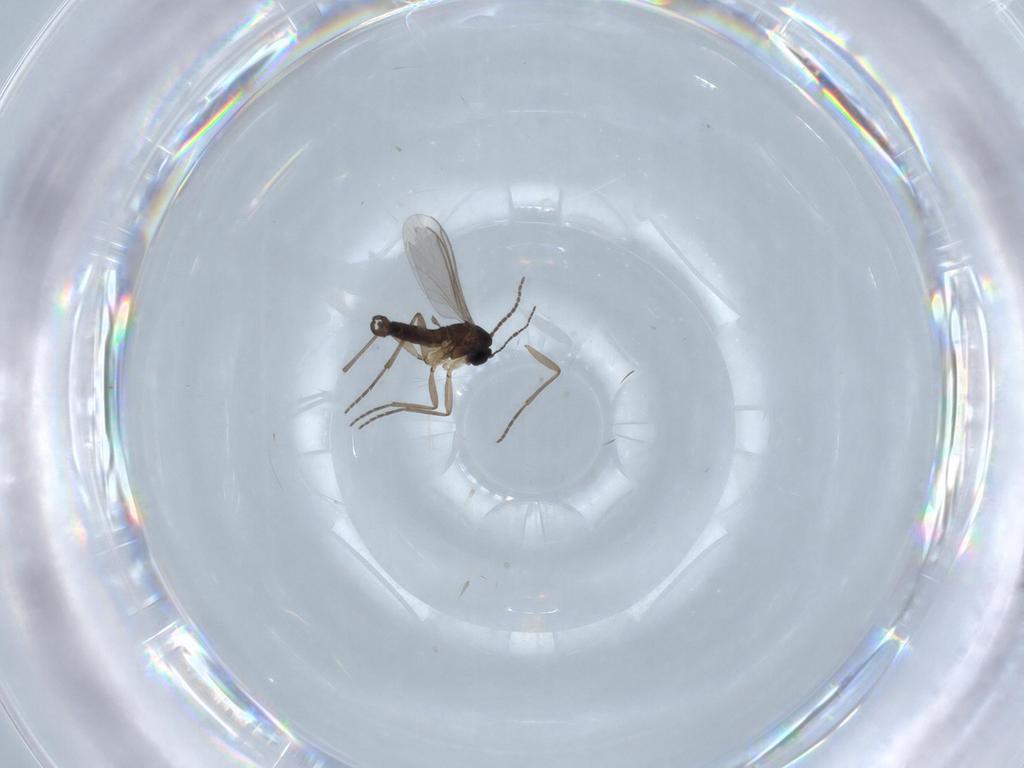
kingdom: Animalia
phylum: Arthropoda
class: Insecta
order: Diptera
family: Sciaridae
